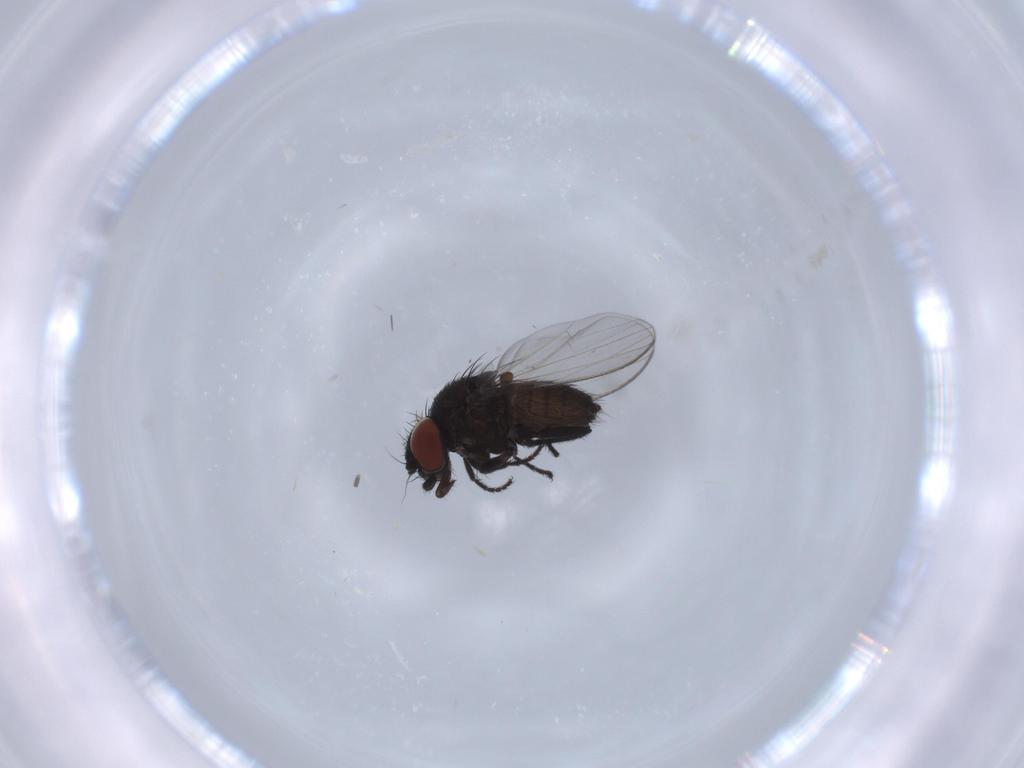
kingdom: Animalia
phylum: Arthropoda
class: Insecta
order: Diptera
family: Milichiidae
